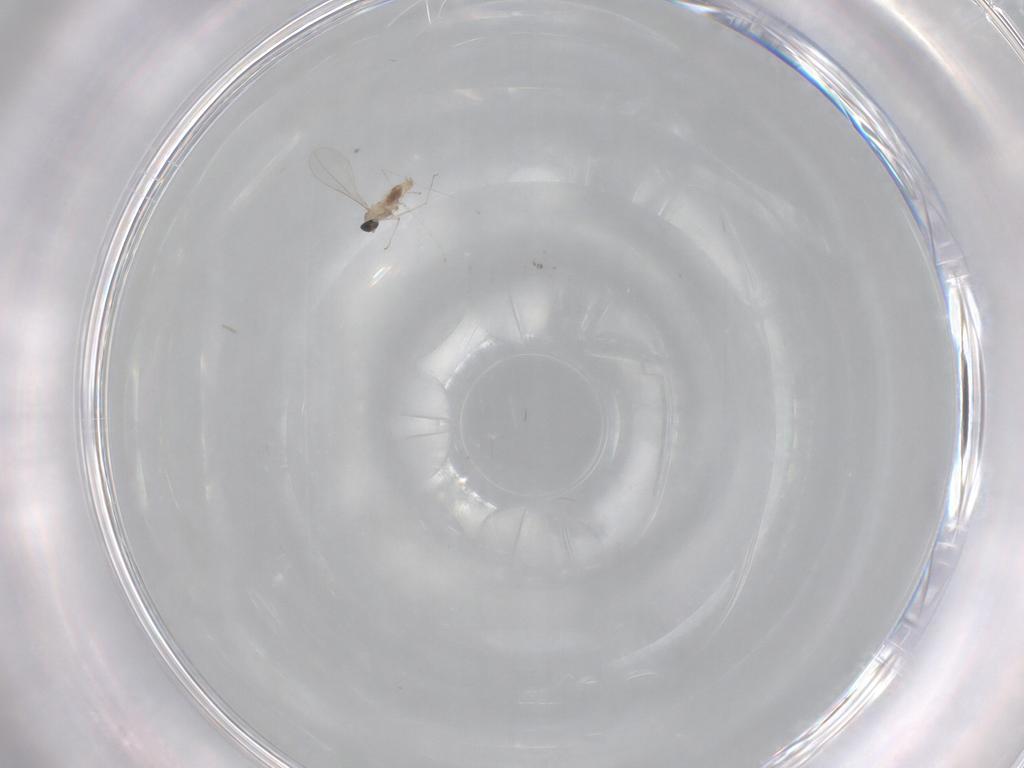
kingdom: Animalia
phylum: Arthropoda
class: Insecta
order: Diptera
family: Cecidomyiidae
